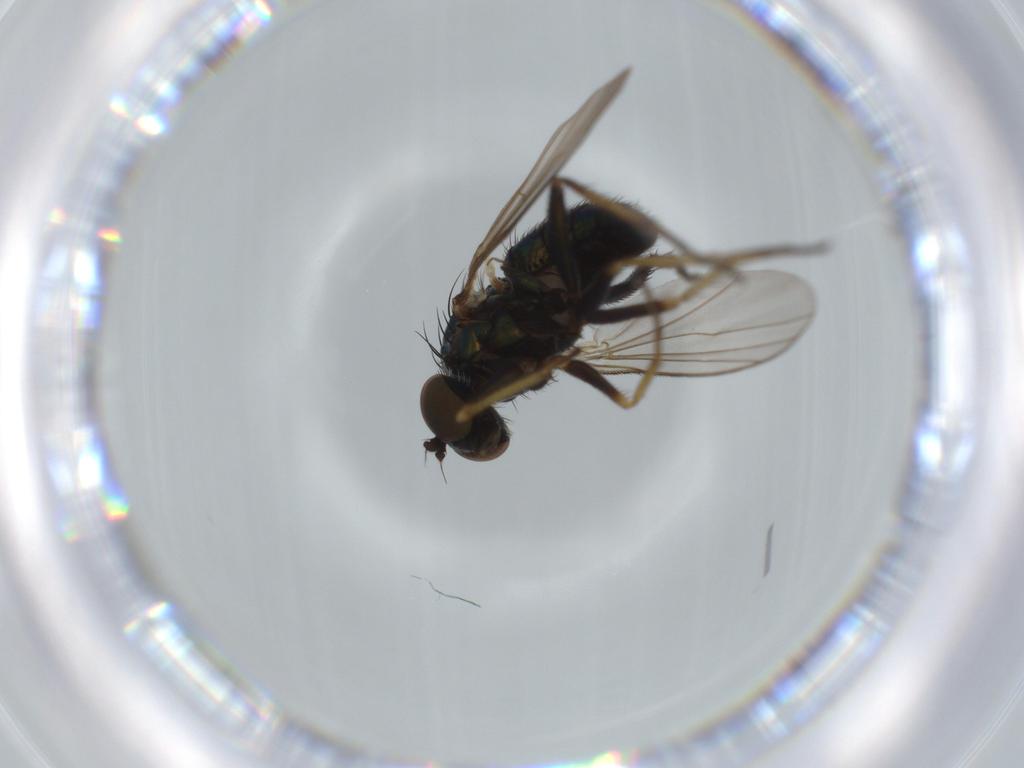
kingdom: Animalia
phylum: Arthropoda
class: Insecta
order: Diptera
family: Dolichopodidae
